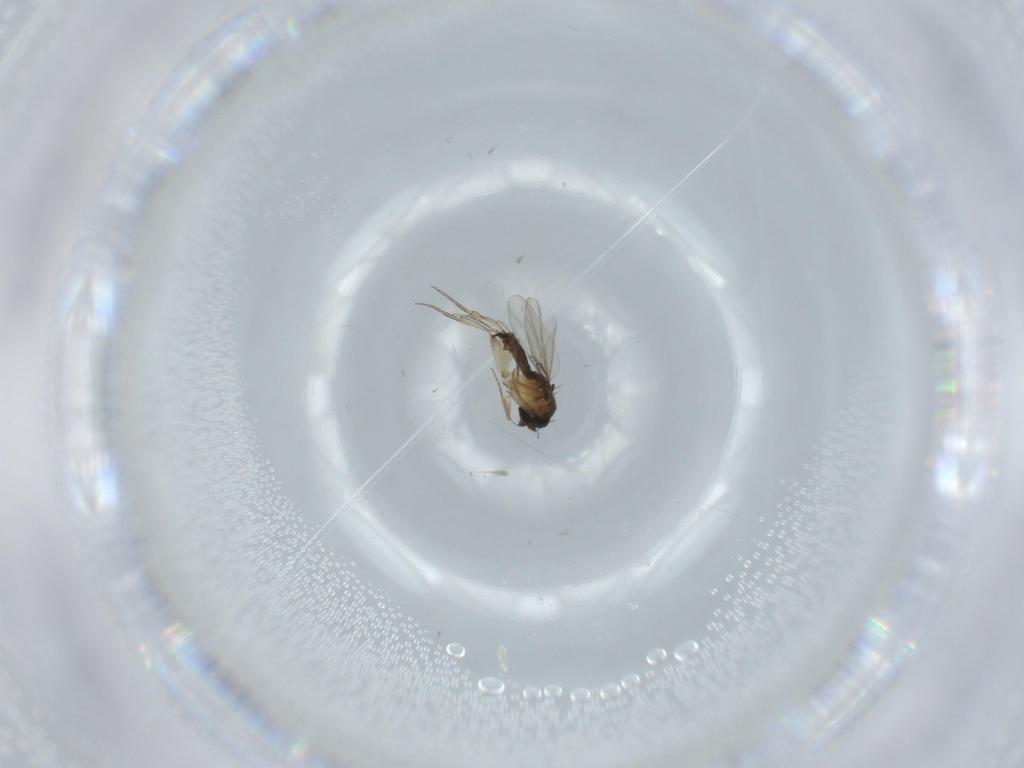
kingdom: Animalia
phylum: Arthropoda
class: Insecta
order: Diptera
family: Phoridae
